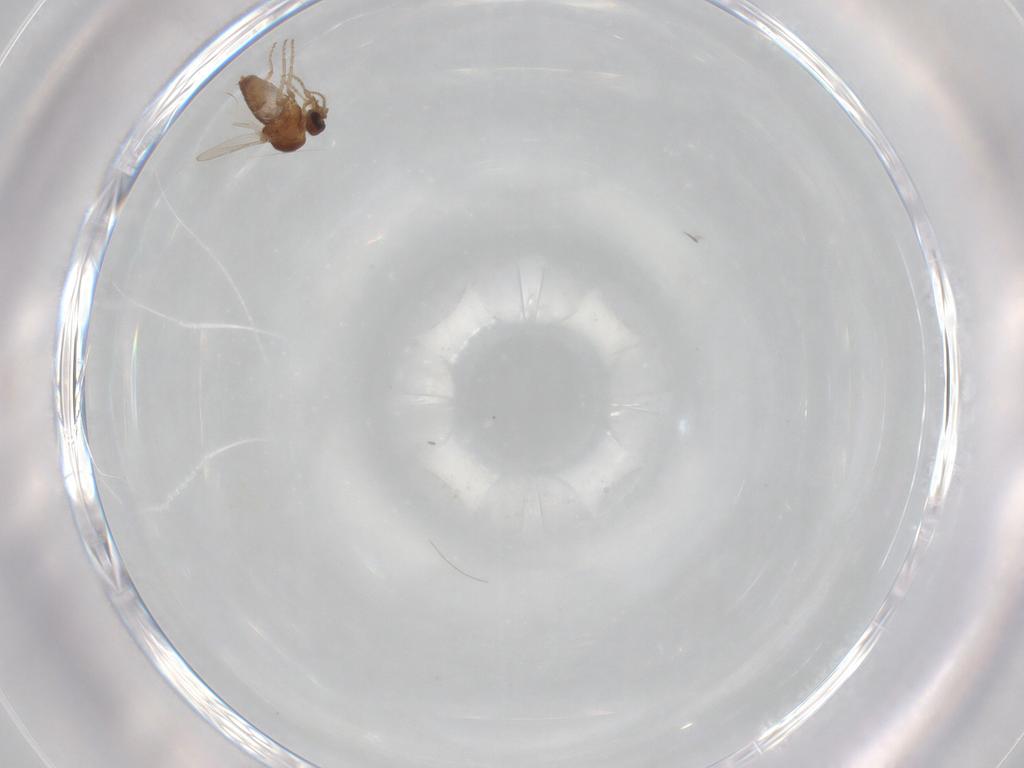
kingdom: Animalia
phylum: Arthropoda
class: Insecta
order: Diptera
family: Ceratopogonidae
